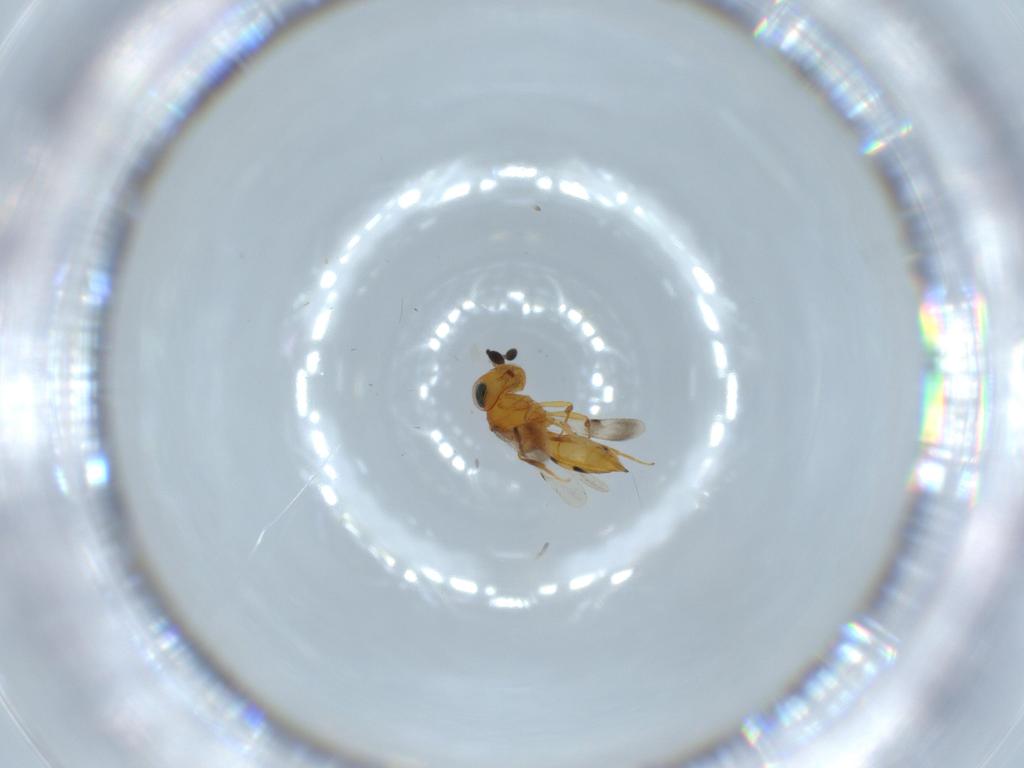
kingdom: Animalia
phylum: Arthropoda
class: Insecta
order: Hymenoptera
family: Scelionidae
